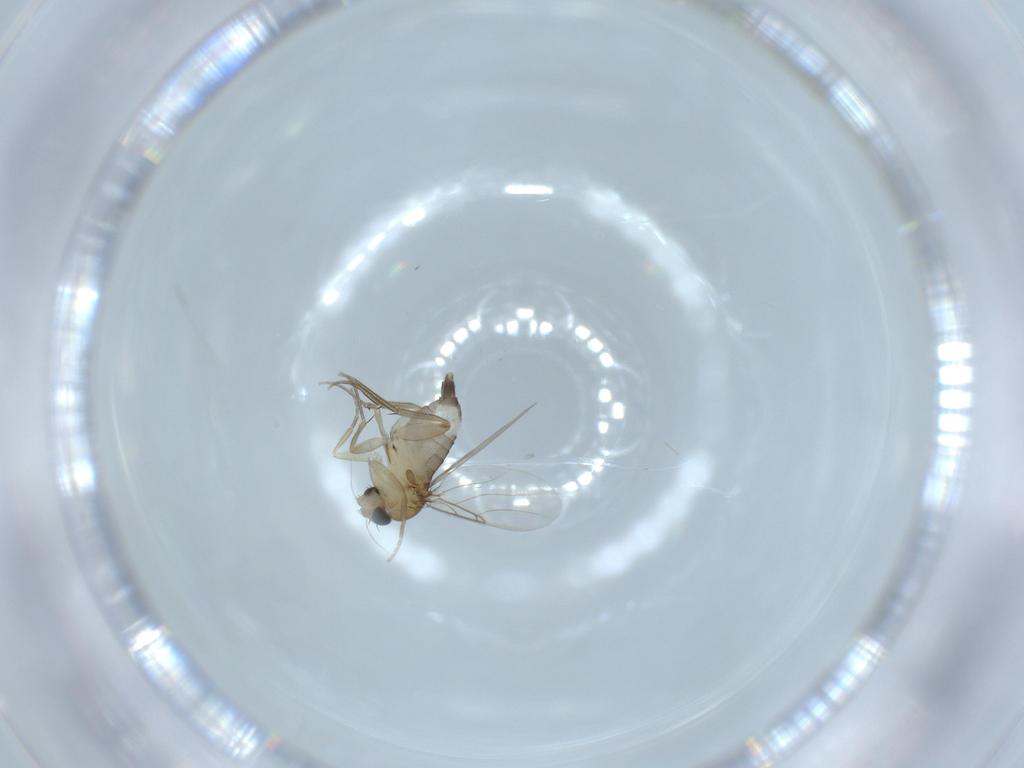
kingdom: Animalia
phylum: Arthropoda
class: Insecta
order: Diptera
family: Phoridae
